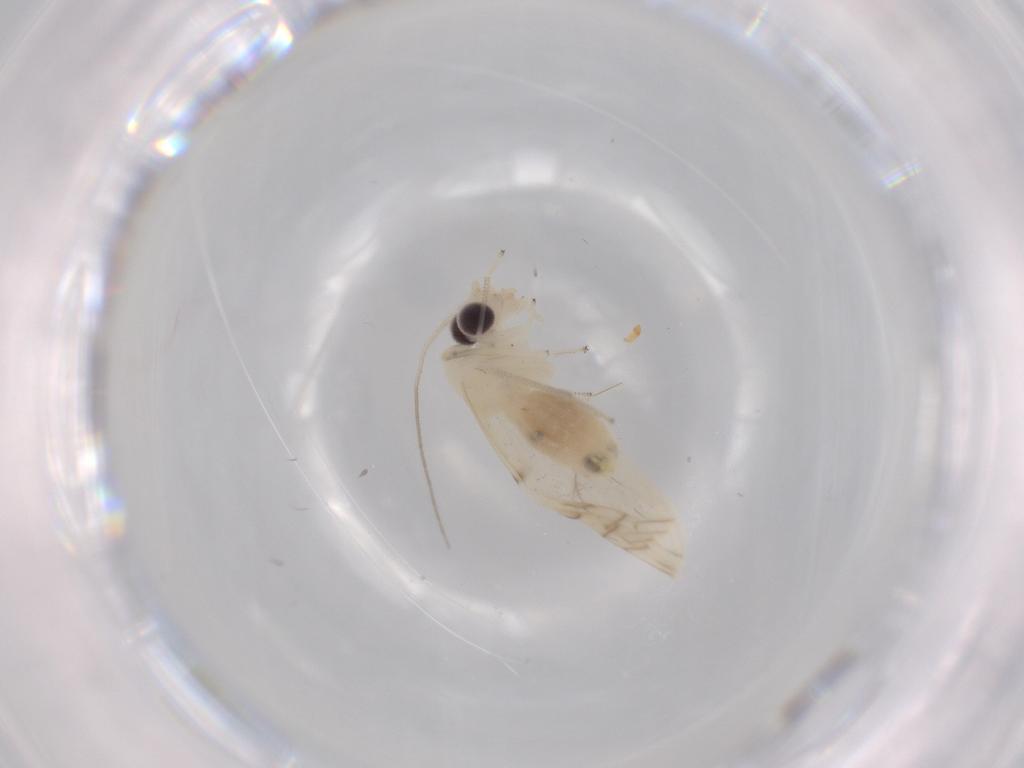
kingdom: Animalia
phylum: Arthropoda
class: Insecta
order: Psocodea
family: Caeciliusidae
